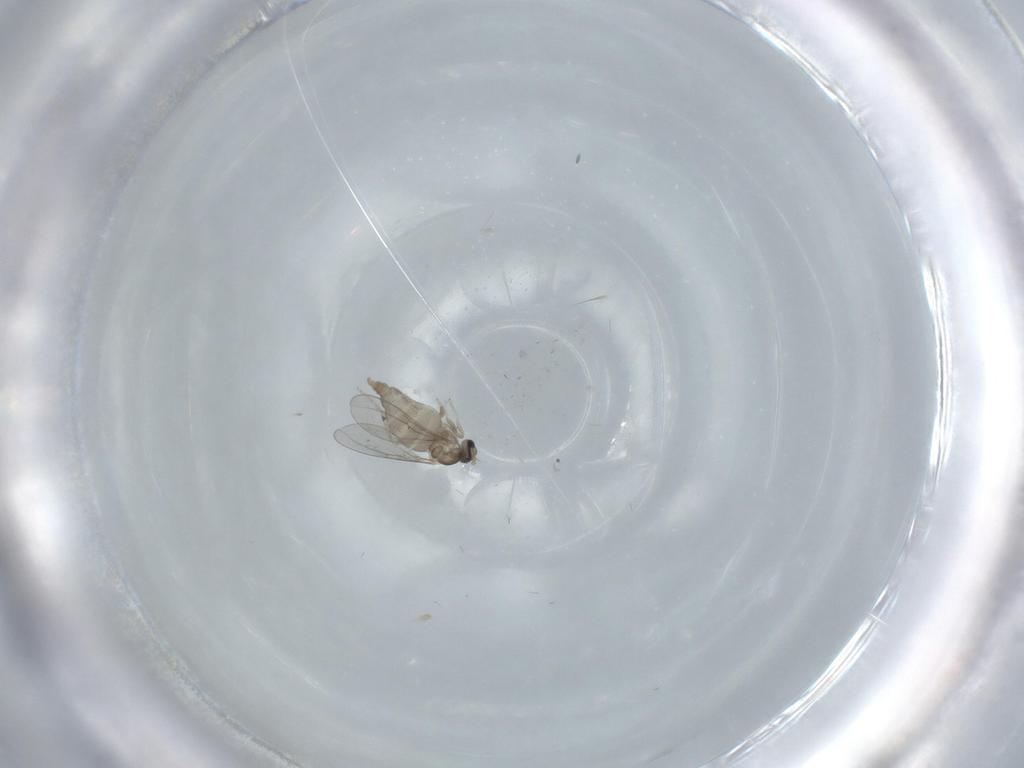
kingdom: Animalia
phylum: Arthropoda
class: Insecta
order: Diptera
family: Cecidomyiidae
